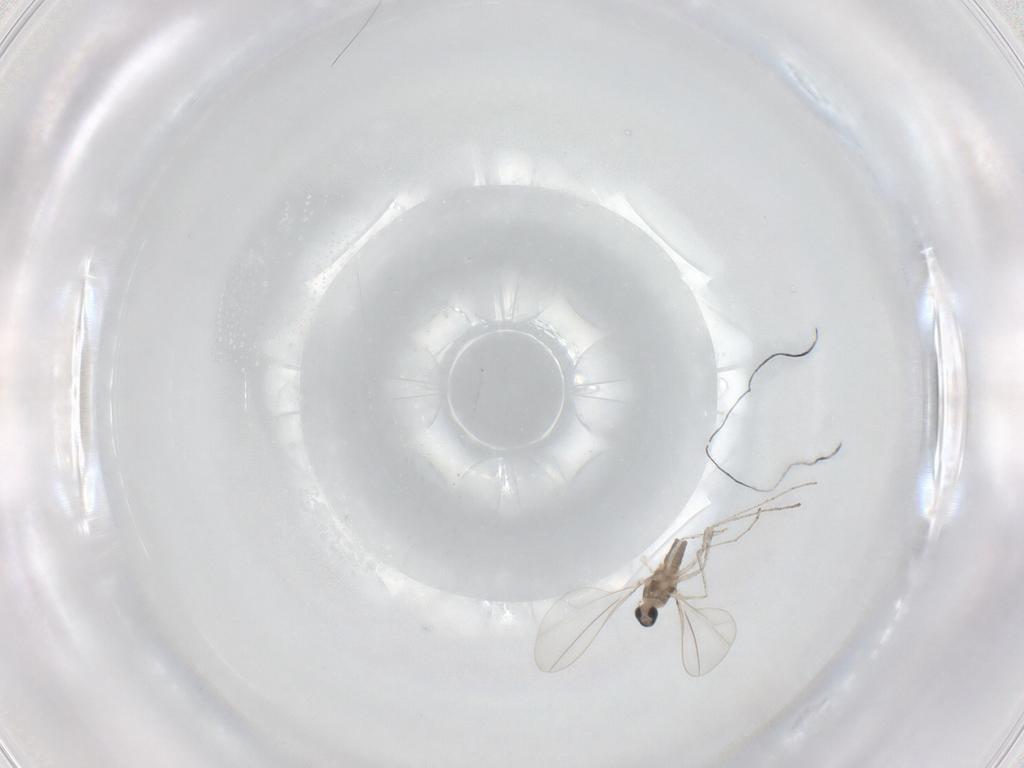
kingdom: Animalia
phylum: Arthropoda
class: Insecta
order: Diptera
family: Cecidomyiidae
